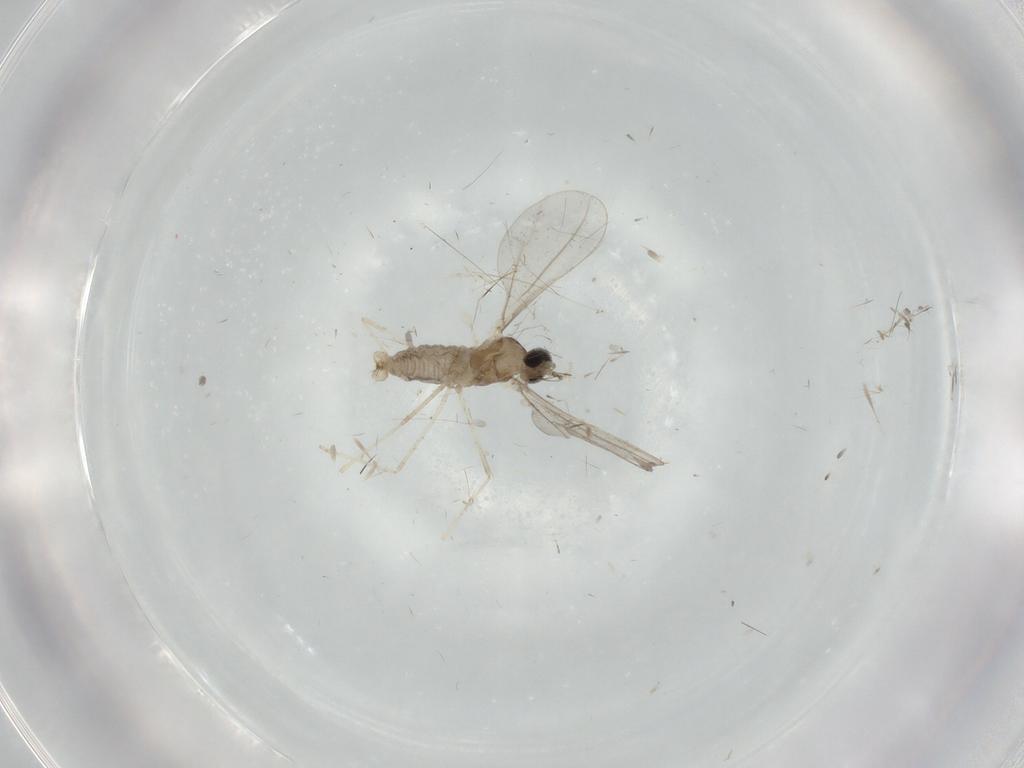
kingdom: Animalia
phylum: Arthropoda
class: Insecta
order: Diptera
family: Cecidomyiidae
